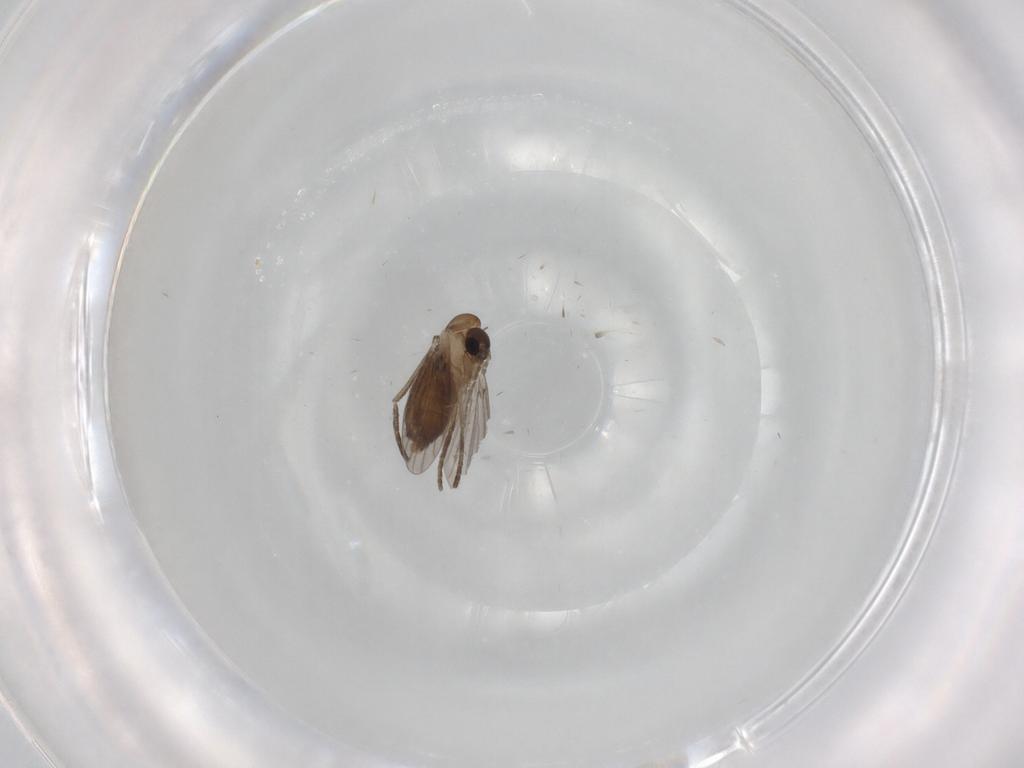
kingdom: Animalia
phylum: Arthropoda
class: Insecta
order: Diptera
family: Cecidomyiidae
